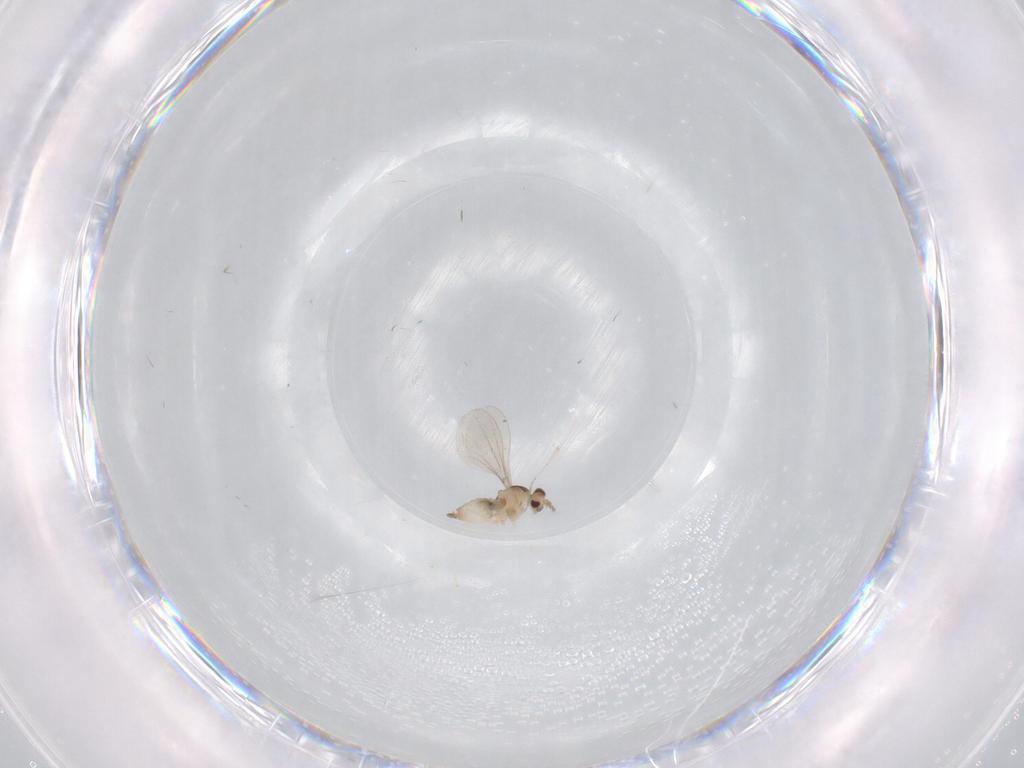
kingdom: Animalia
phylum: Arthropoda
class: Insecta
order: Diptera
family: Cecidomyiidae
